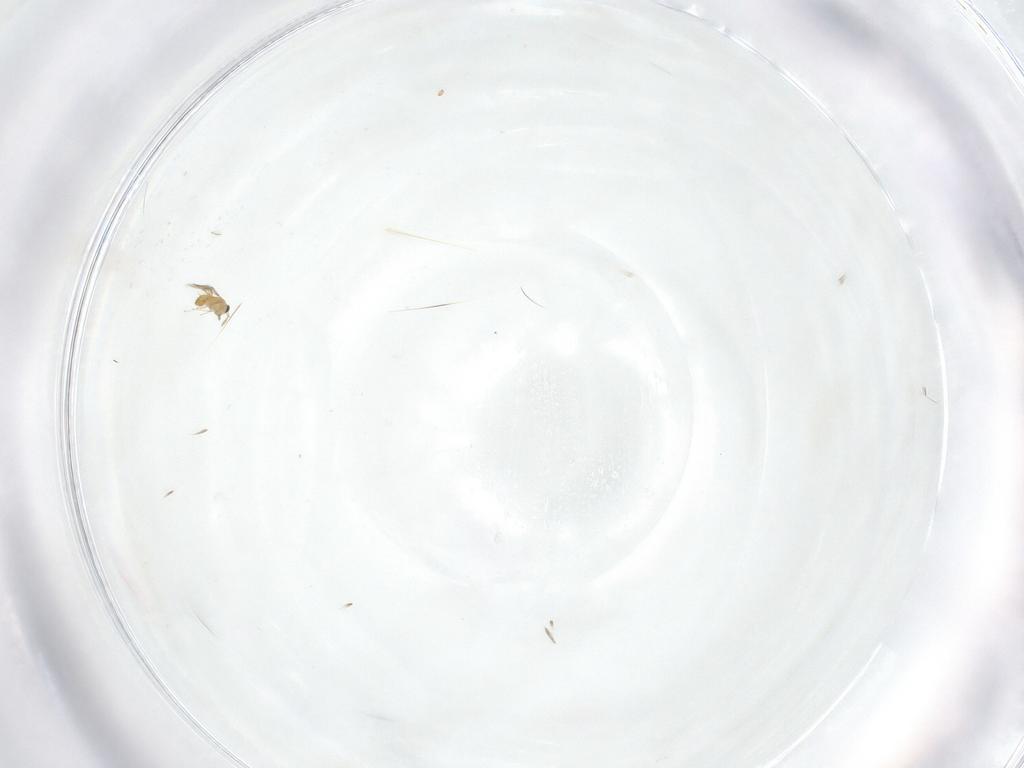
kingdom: Animalia
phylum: Arthropoda
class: Insecta
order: Hymenoptera
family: Trichogrammatidae
